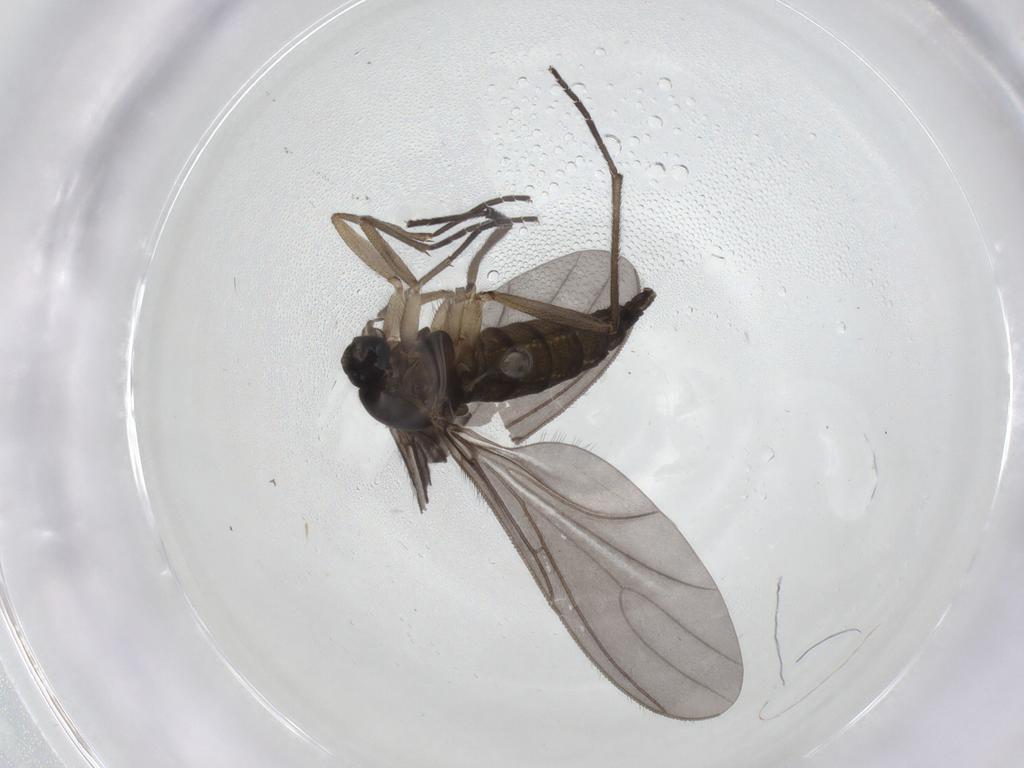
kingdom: Animalia
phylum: Arthropoda
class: Insecta
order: Diptera
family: Sciaridae
